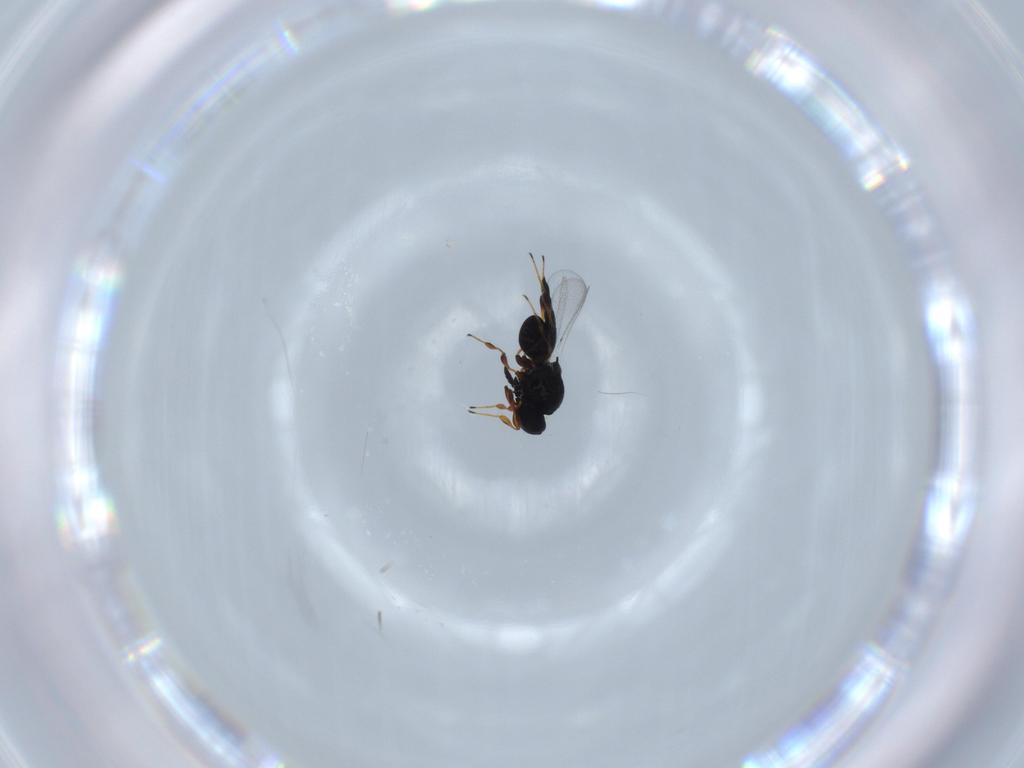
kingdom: Animalia
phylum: Arthropoda
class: Insecta
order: Hymenoptera
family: Platygastridae
